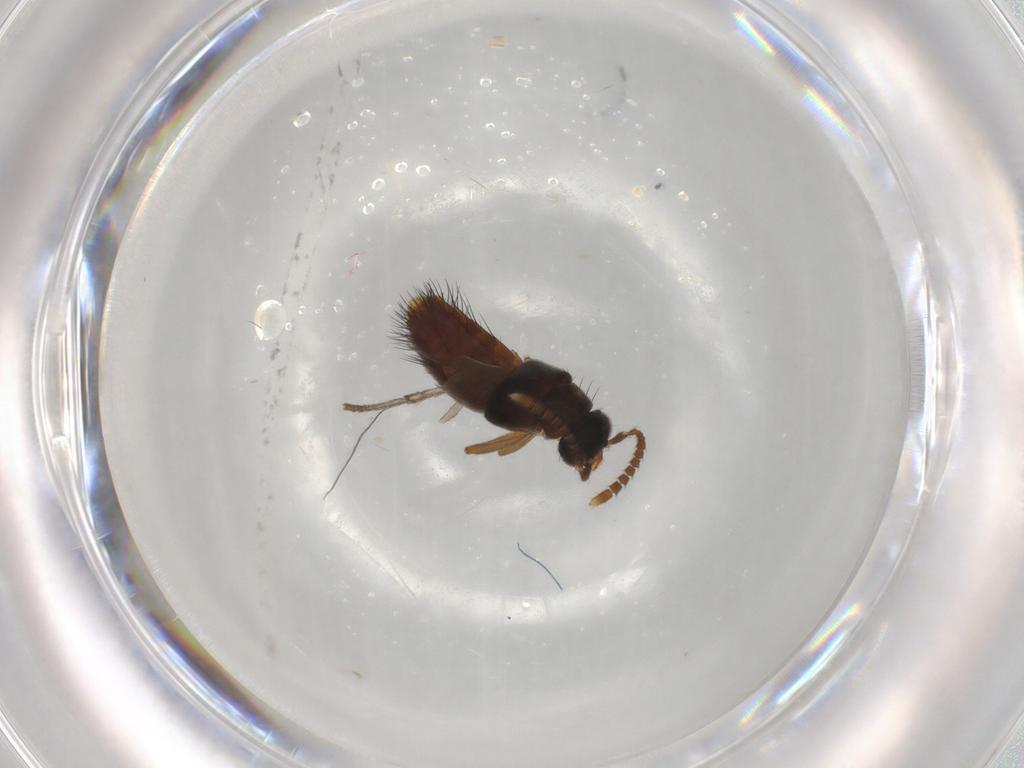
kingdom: Animalia
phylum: Arthropoda
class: Insecta
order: Coleoptera
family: Staphylinidae
